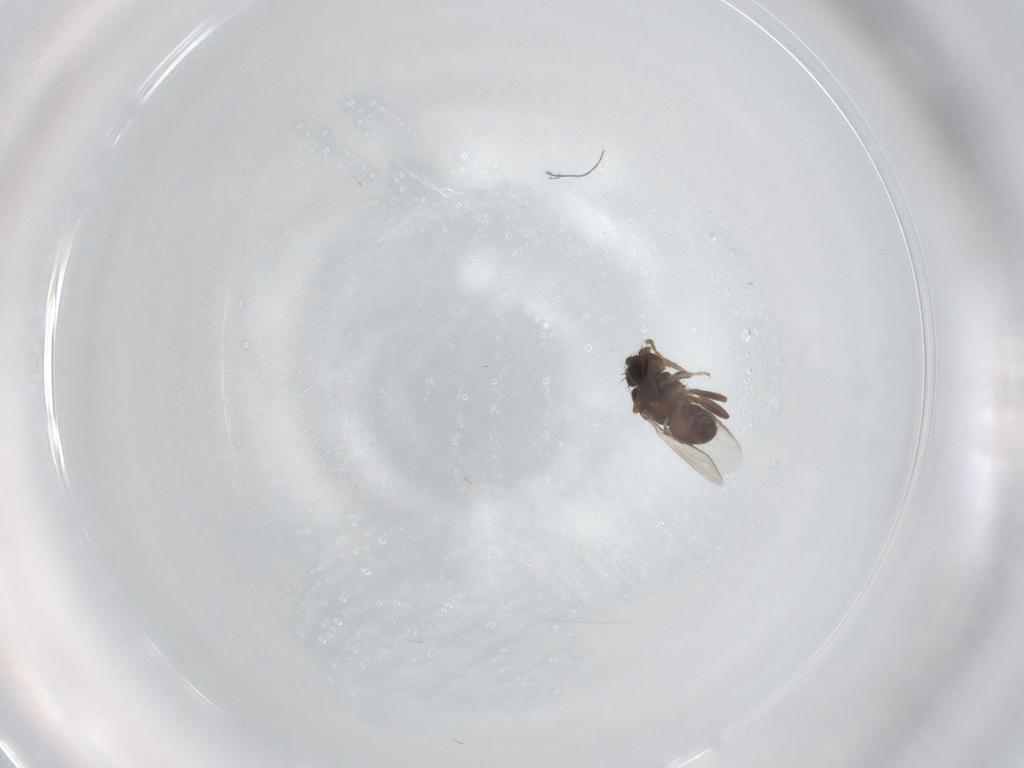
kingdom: Animalia
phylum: Arthropoda
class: Insecta
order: Diptera
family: Sphaeroceridae
